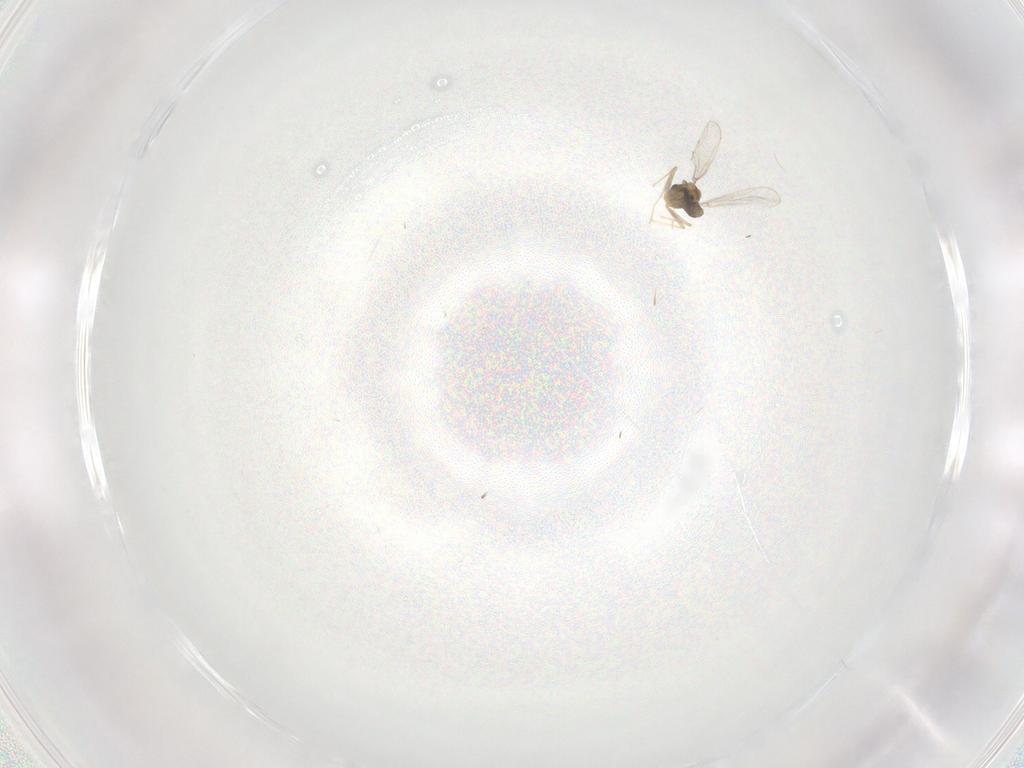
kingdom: Animalia
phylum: Arthropoda
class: Insecta
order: Diptera
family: Chironomidae
